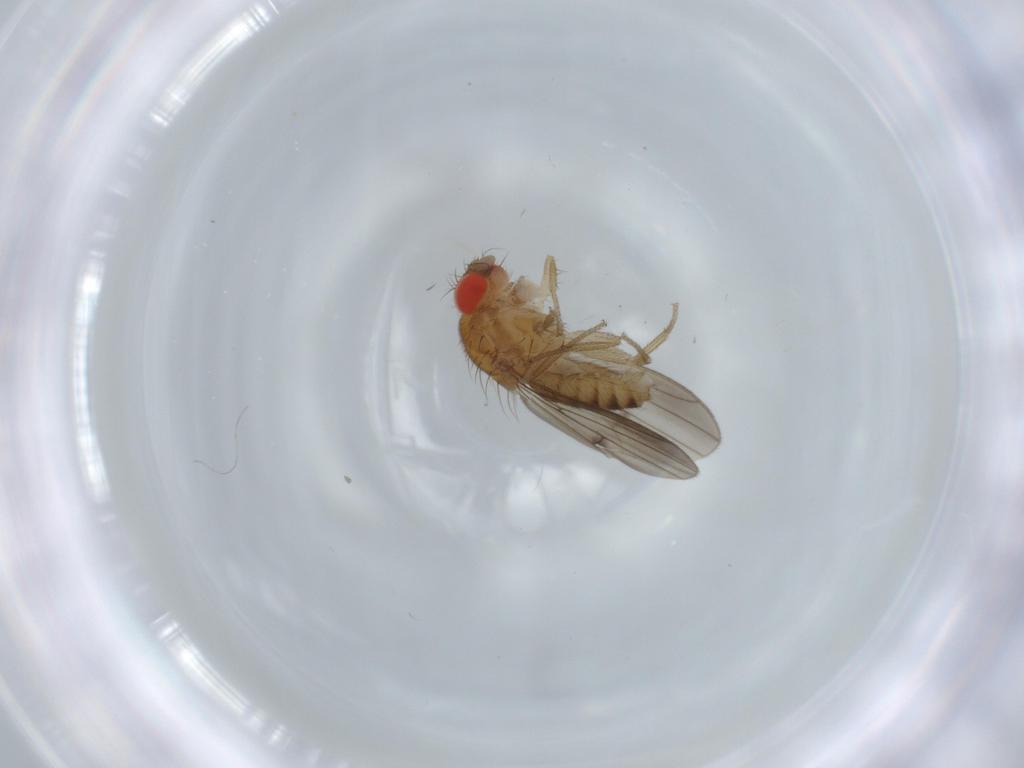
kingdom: Animalia
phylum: Arthropoda
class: Insecta
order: Diptera
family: Drosophilidae
